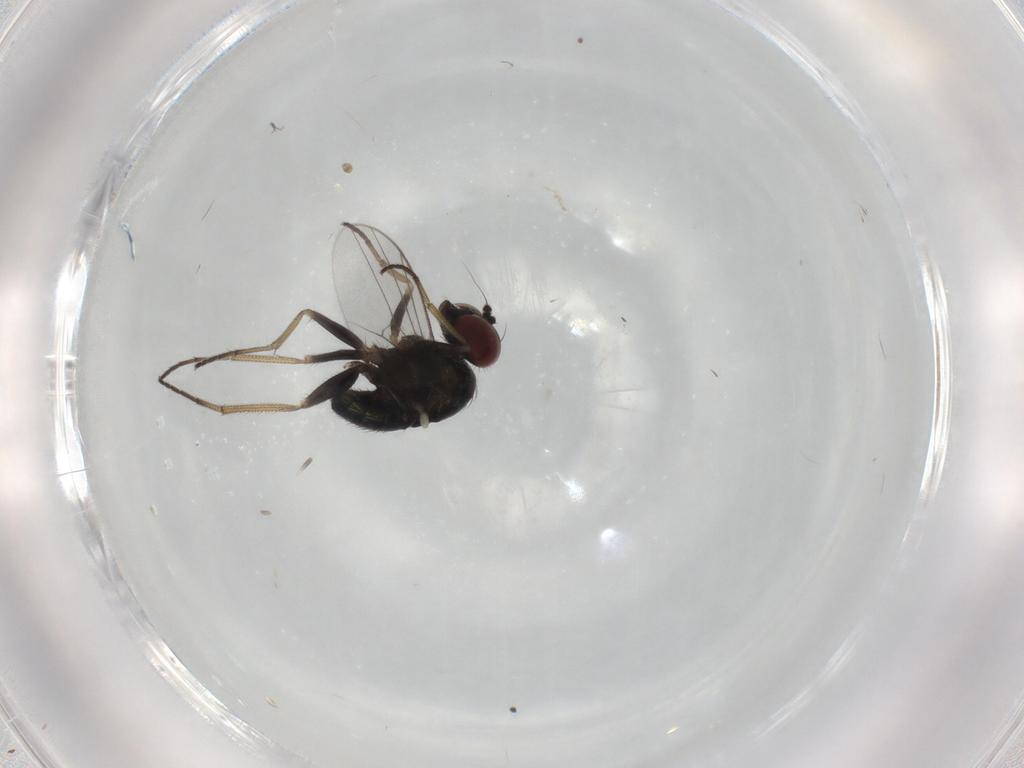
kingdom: Animalia
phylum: Arthropoda
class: Insecta
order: Diptera
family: Dolichopodidae
